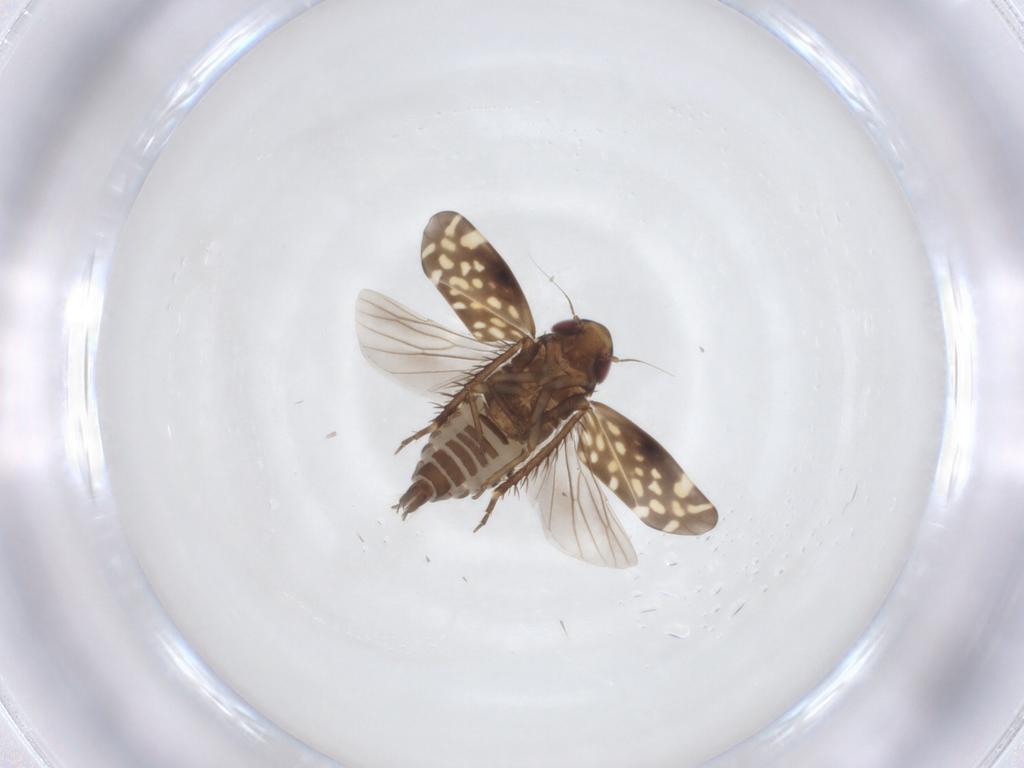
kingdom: Animalia
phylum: Arthropoda
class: Insecta
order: Hemiptera
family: Cicadellidae
